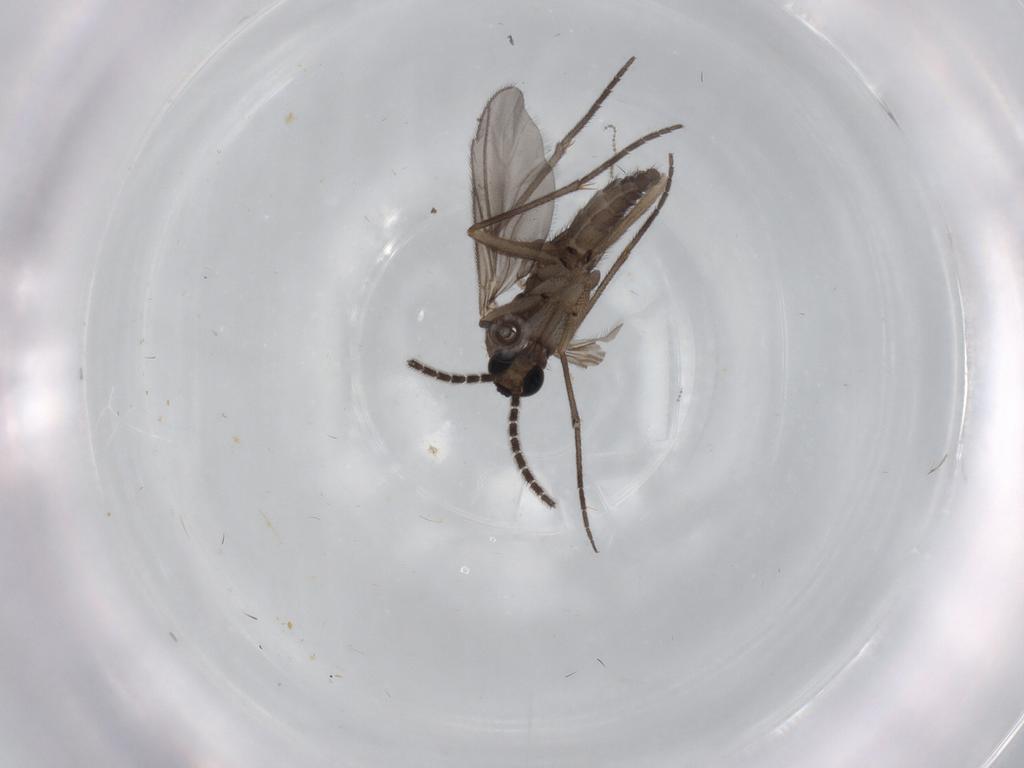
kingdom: Animalia
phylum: Arthropoda
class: Insecta
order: Diptera
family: Sciaridae
